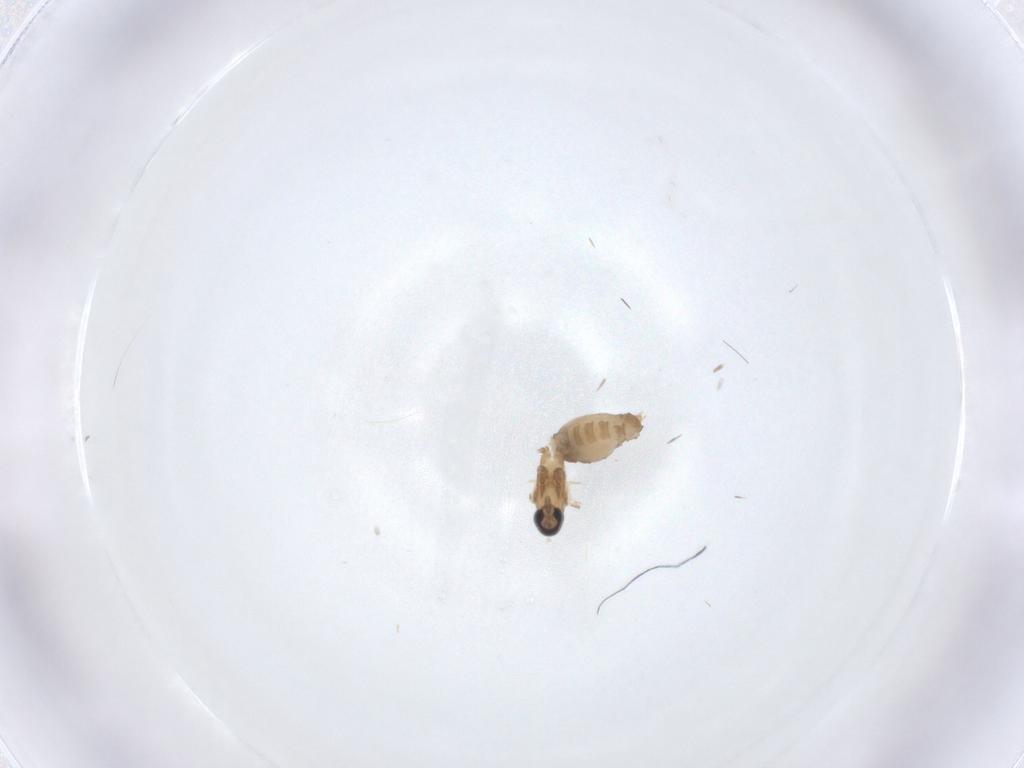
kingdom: Animalia
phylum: Arthropoda
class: Insecta
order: Diptera
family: Cecidomyiidae
